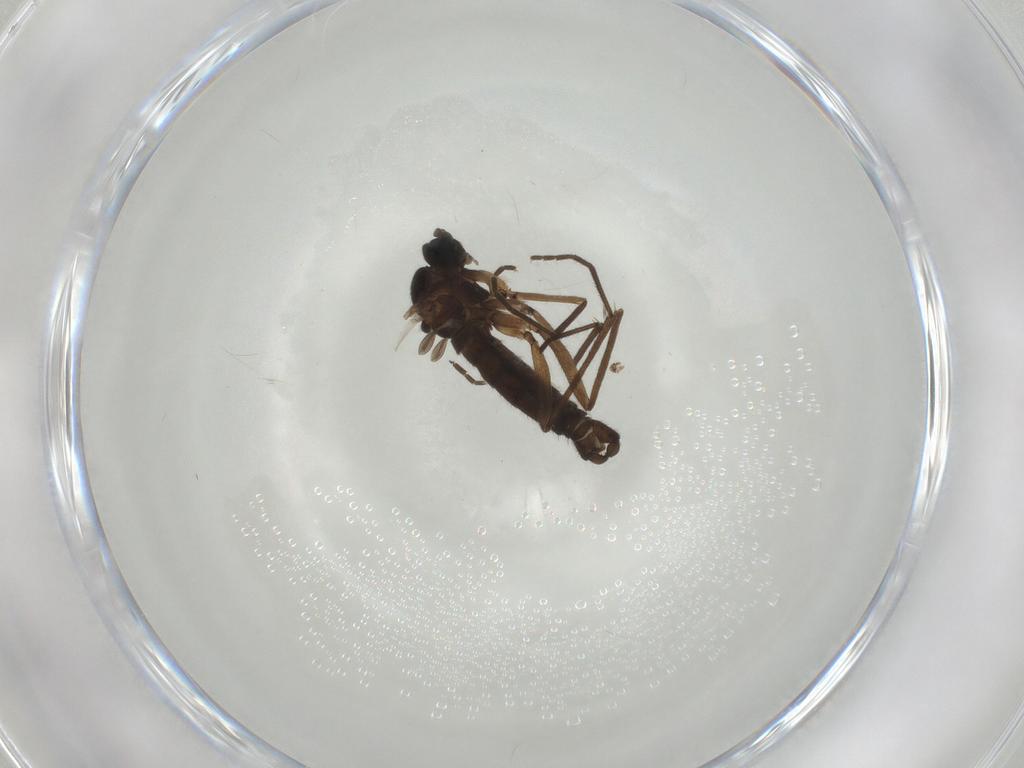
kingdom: Animalia
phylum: Arthropoda
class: Insecta
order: Diptera
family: Sciaridae
